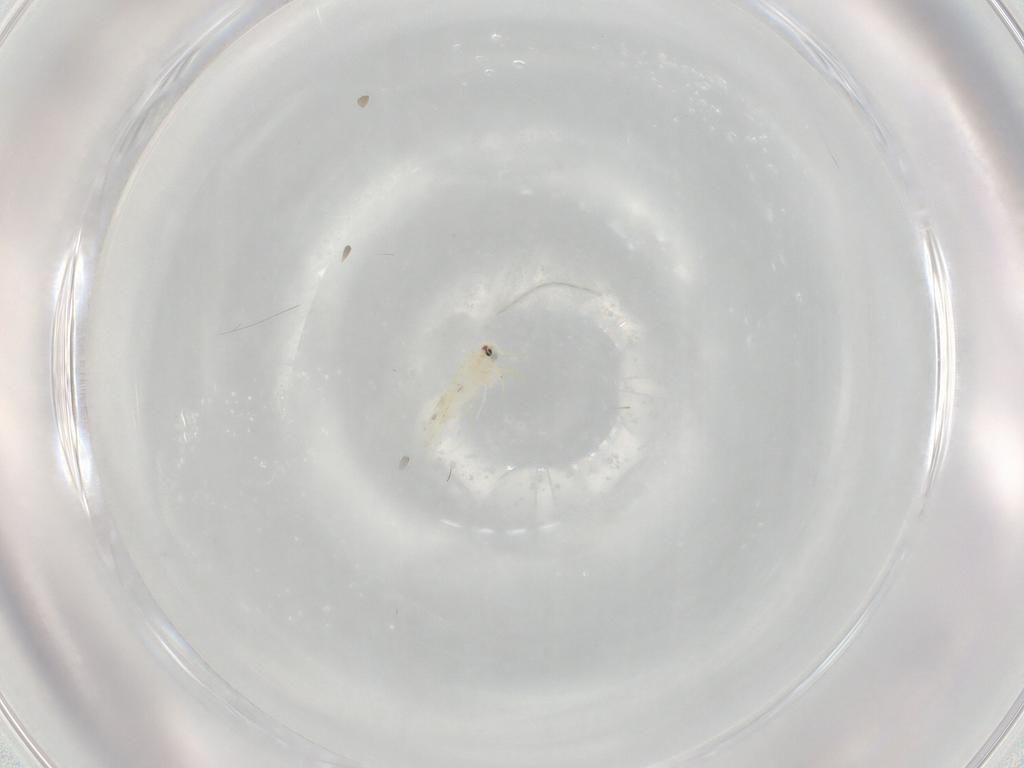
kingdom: Animalia
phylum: Arthropoda
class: Insecta
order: Hemiptera
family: Cicadellidae
